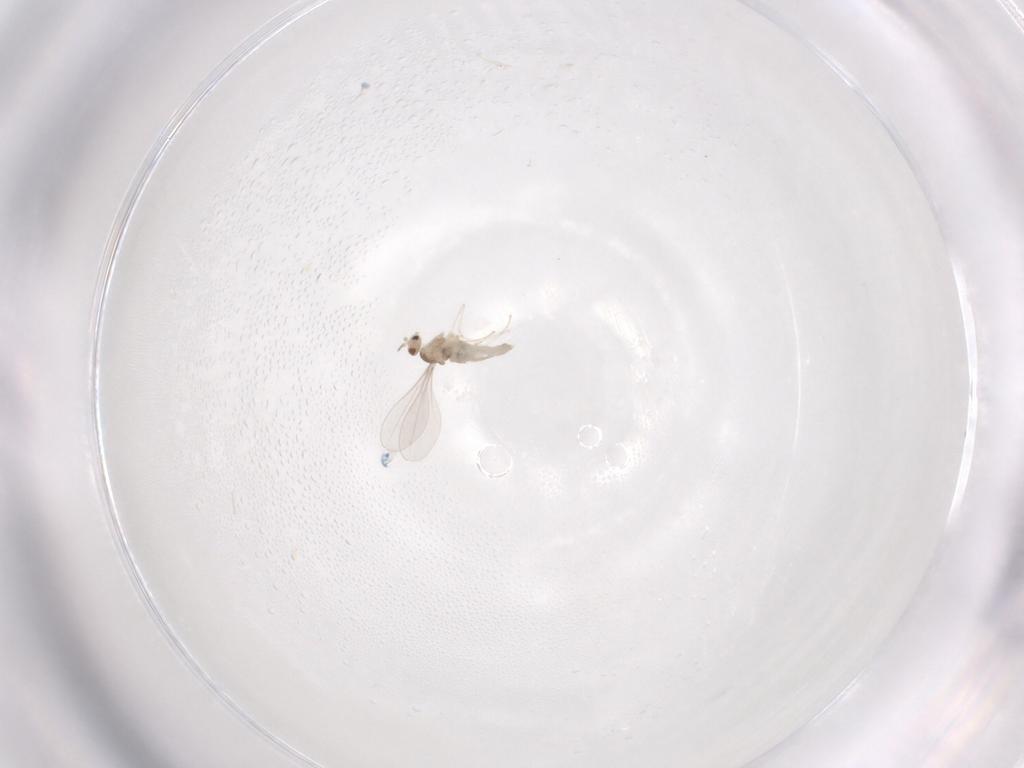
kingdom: Animalia
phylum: Arthropoda
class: Insecta
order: Diptera
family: Cecidomyiidae
